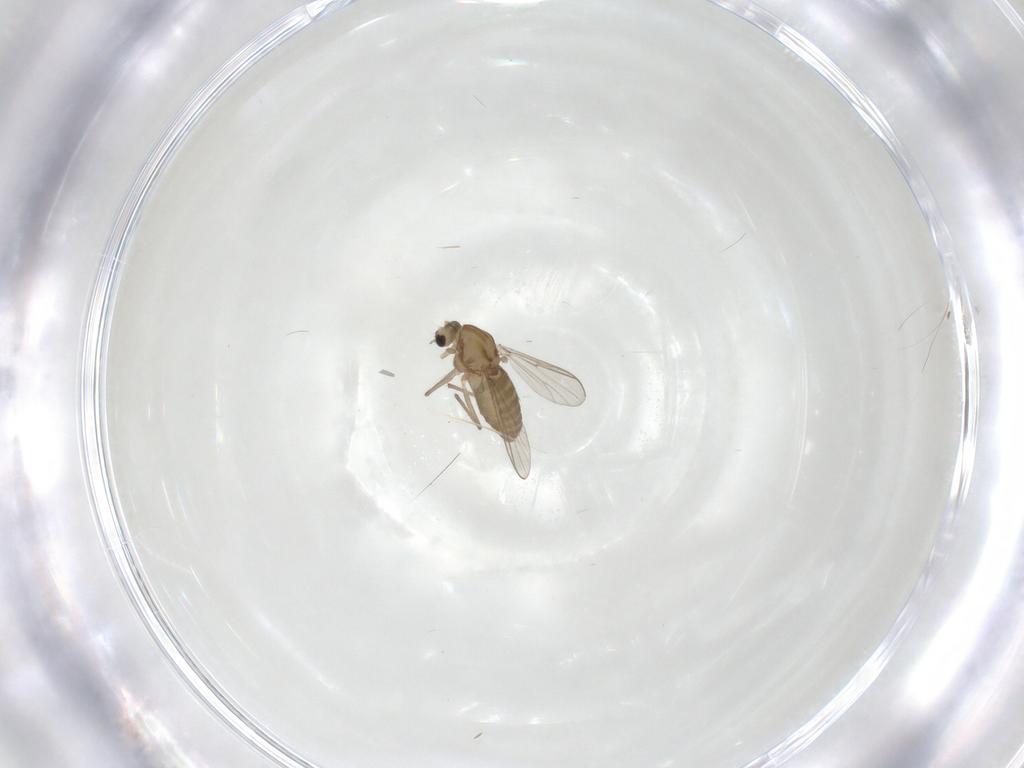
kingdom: Animalia
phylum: Arthropoda
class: Insecta
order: Diptera
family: Chironomidae
